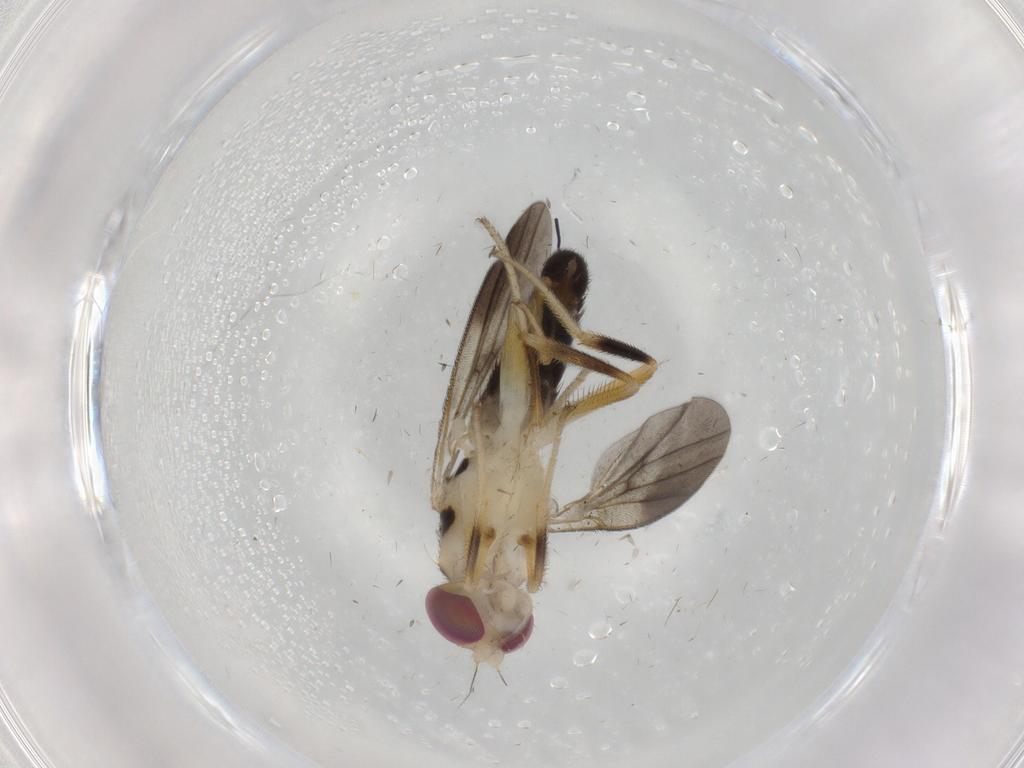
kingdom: Animalia
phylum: Arthropoda
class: Insecta
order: Diptera
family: Clusiidae
